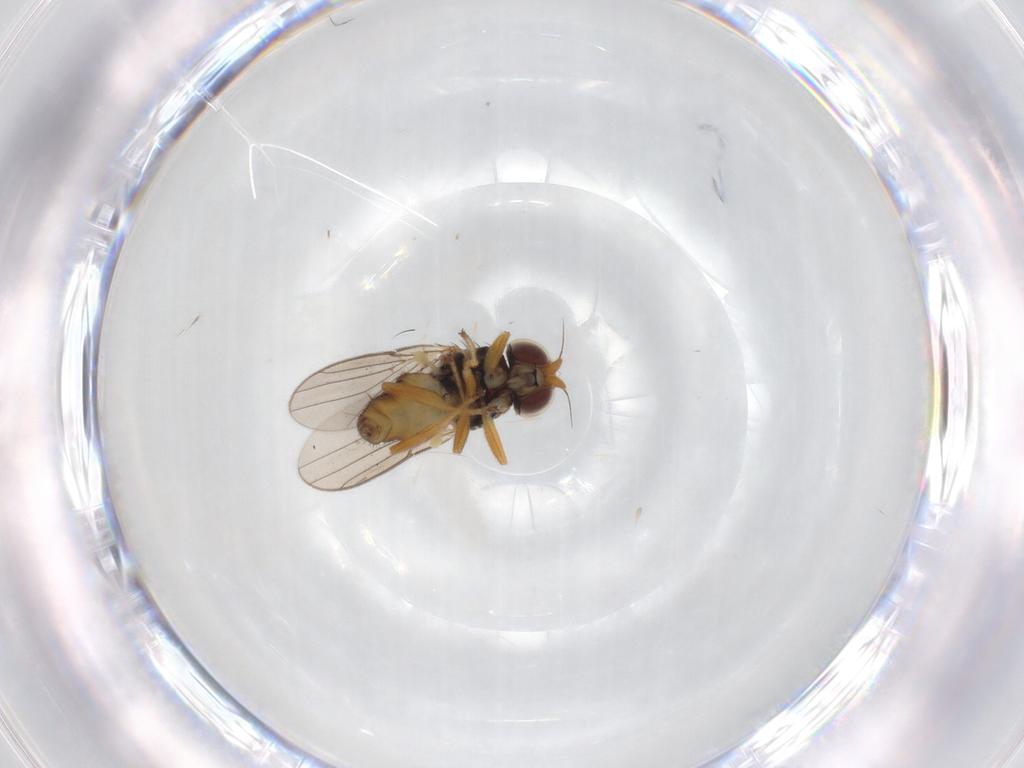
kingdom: Animalia
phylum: Arthropoda
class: Insecta
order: Diptera
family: Chloropidae
